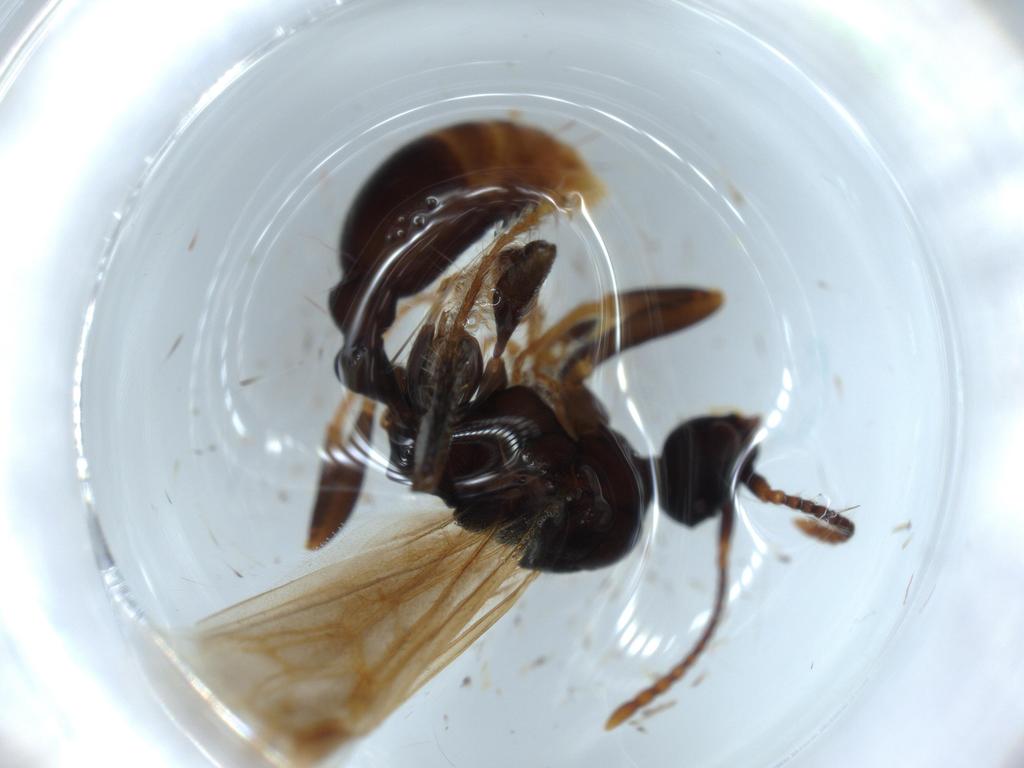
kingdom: Animalia
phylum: Arthropoda
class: Insecta
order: Hymenoptera
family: Formicidae
